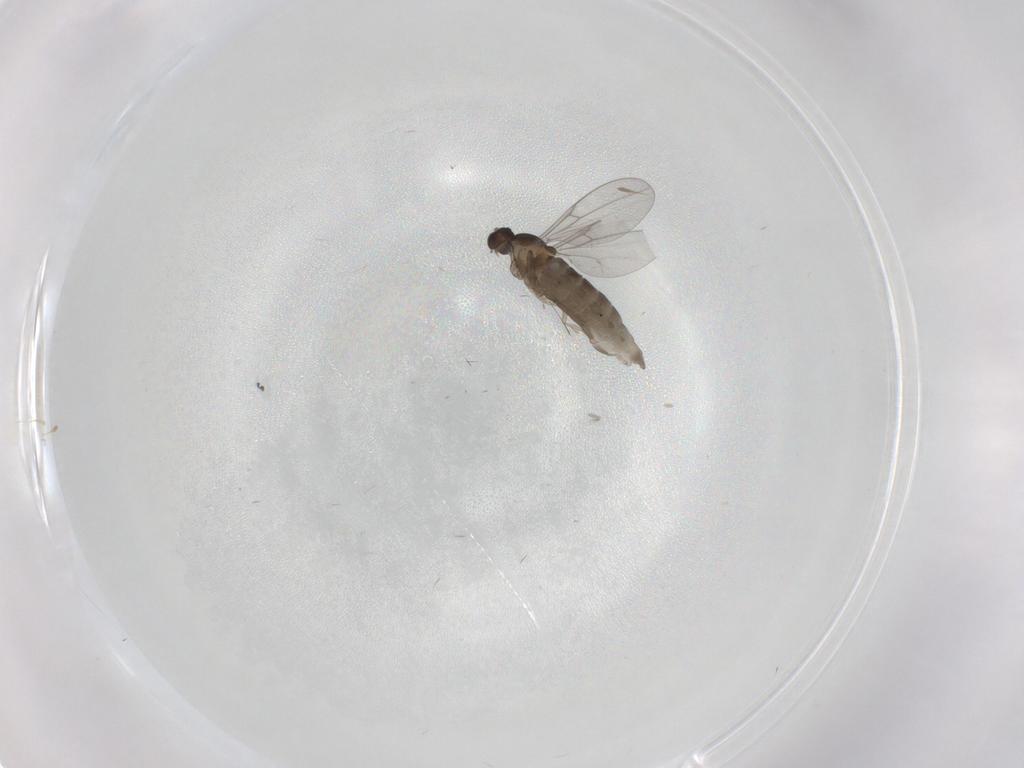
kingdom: Animalia
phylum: Arthropoda
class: Insecta
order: Diptera
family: Cecidomyiidae
